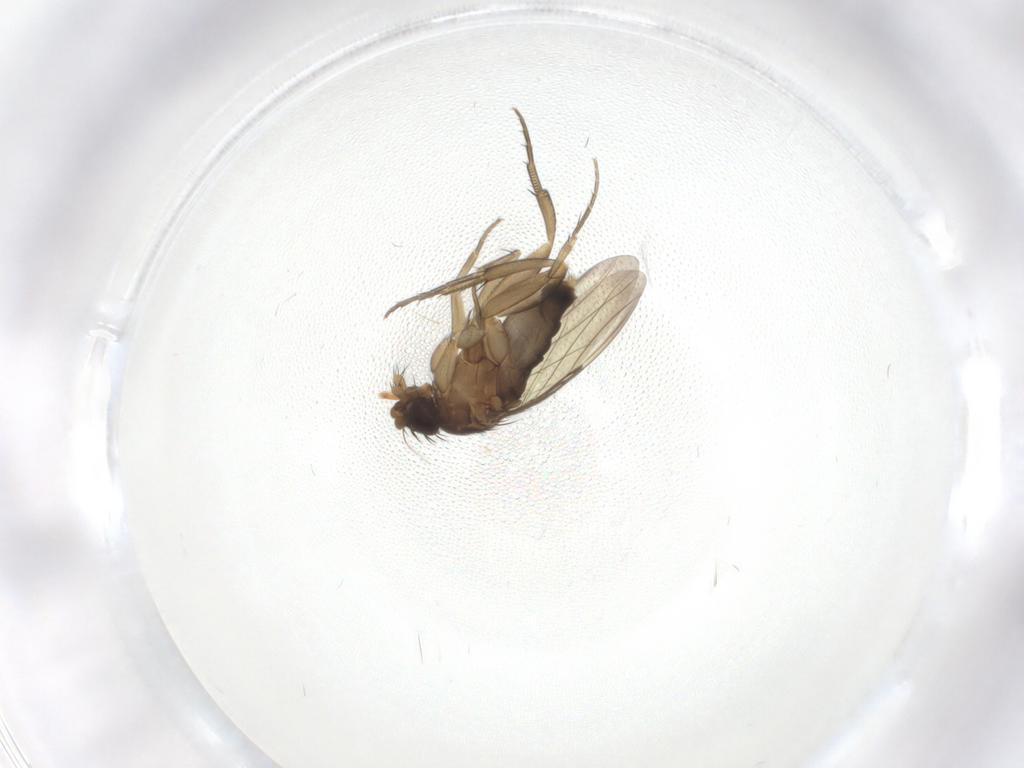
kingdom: Animalia
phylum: Arthropoda
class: Insecta
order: Diptera
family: Phoridae
